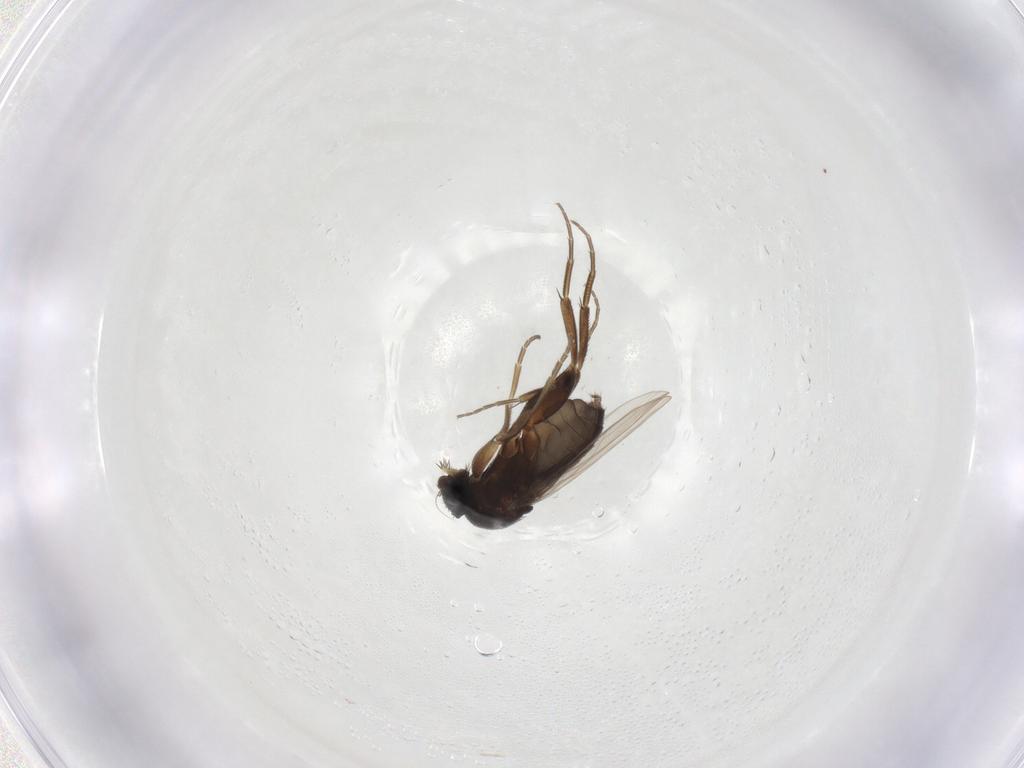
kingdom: Animalia
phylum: Arthropoda
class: Insecta
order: Diptera
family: Phoridae
